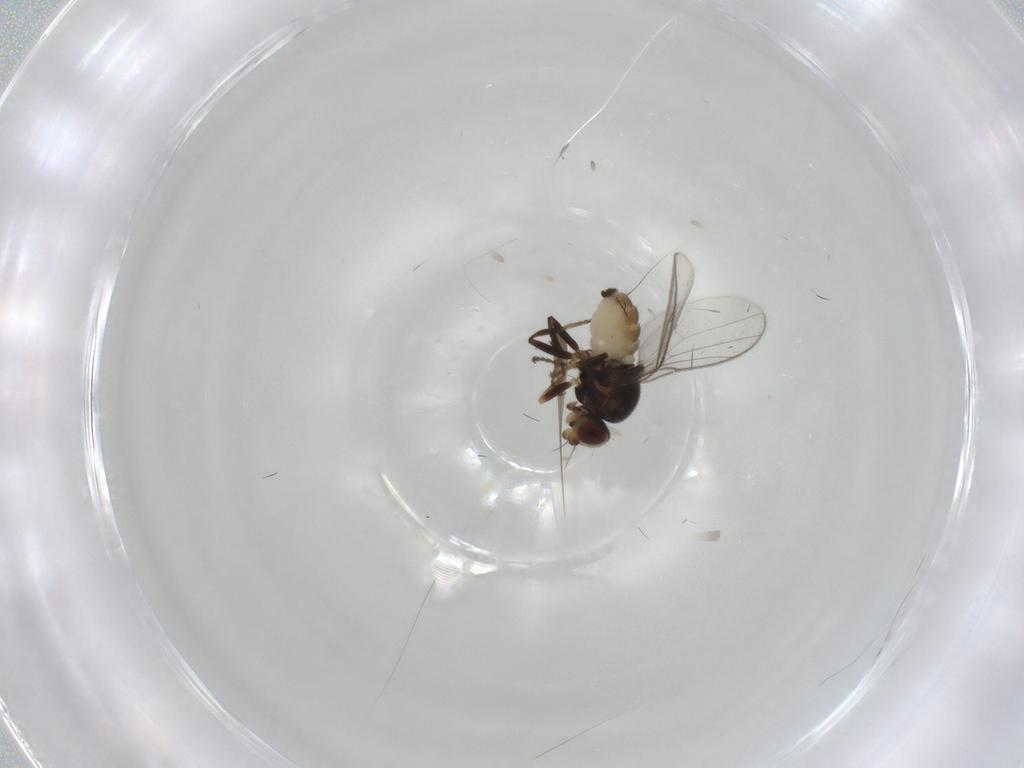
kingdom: Animalia
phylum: Arthropoda
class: Insecta
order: Diptera
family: Chloropidae
